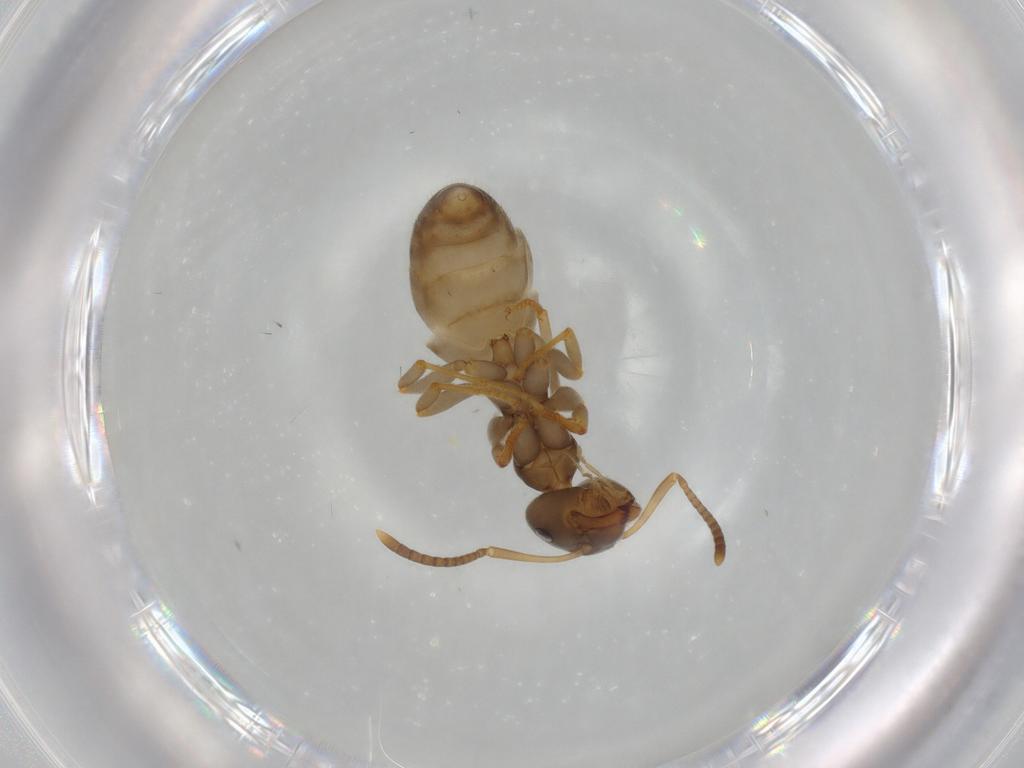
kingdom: Animalia
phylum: Arthropoda
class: Insecta
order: Hymenoptera
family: Formicidae
